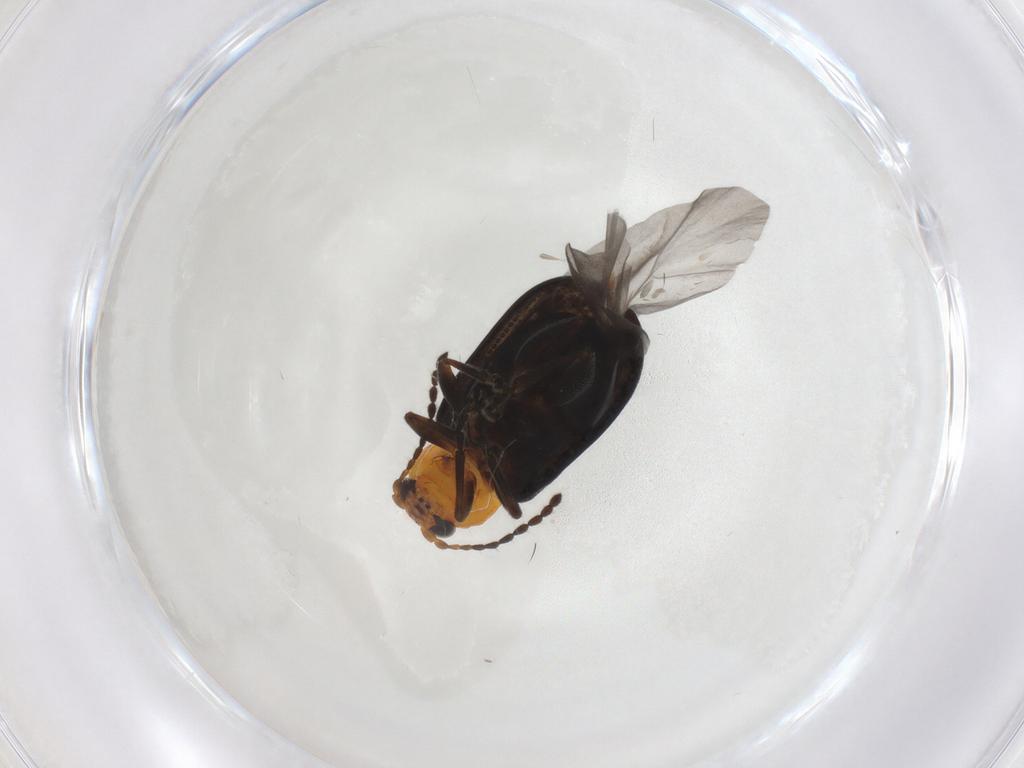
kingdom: Animalia
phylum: Arthropoda
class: Insecta
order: Coleoptera
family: Chrysomelidae
